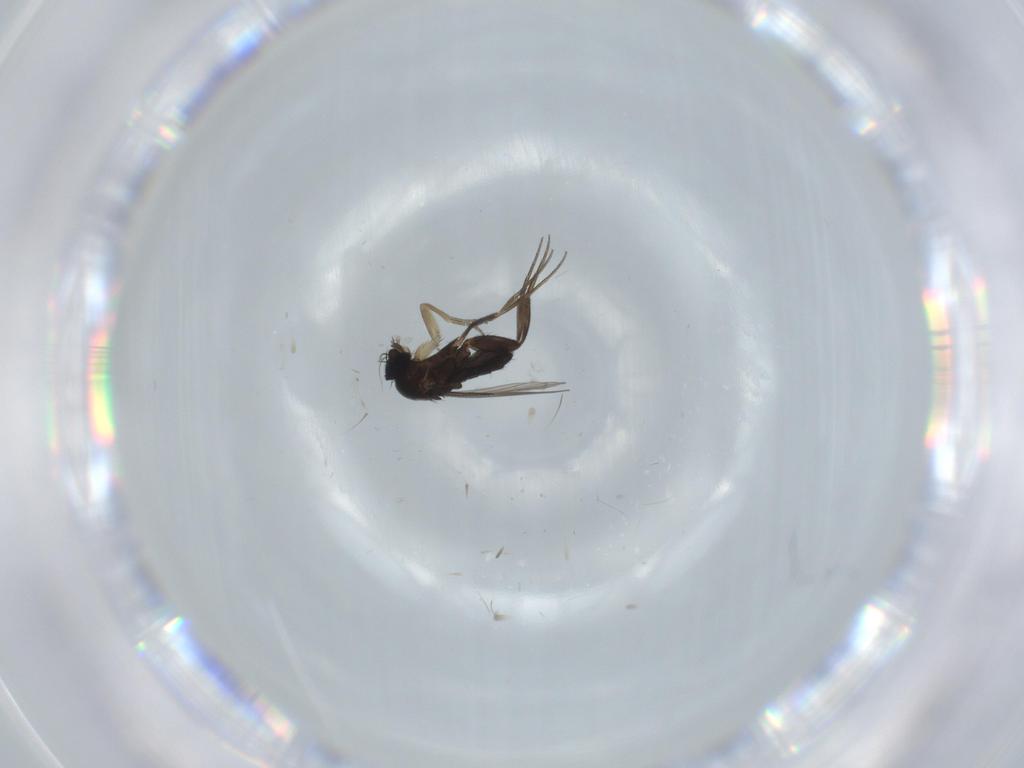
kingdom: Animalia
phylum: Arthropoda
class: Insecta
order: Diptera
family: Phoridae
